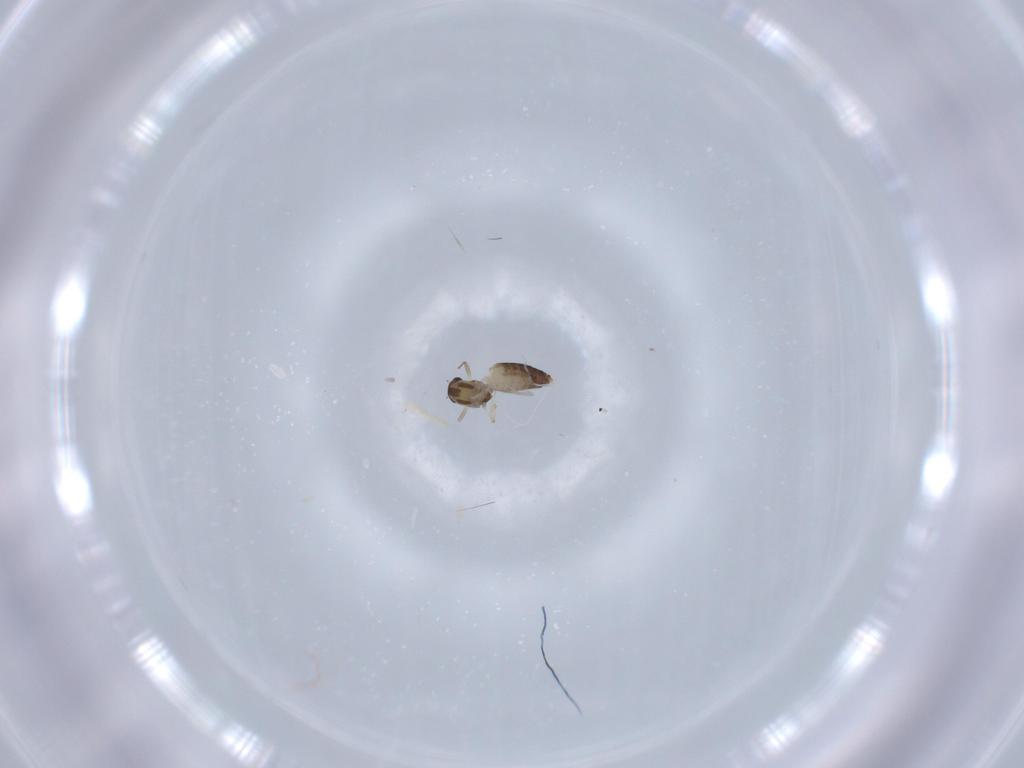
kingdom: Animalia
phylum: Arthropoda
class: Insecta
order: Diptera
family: Chironomidae
